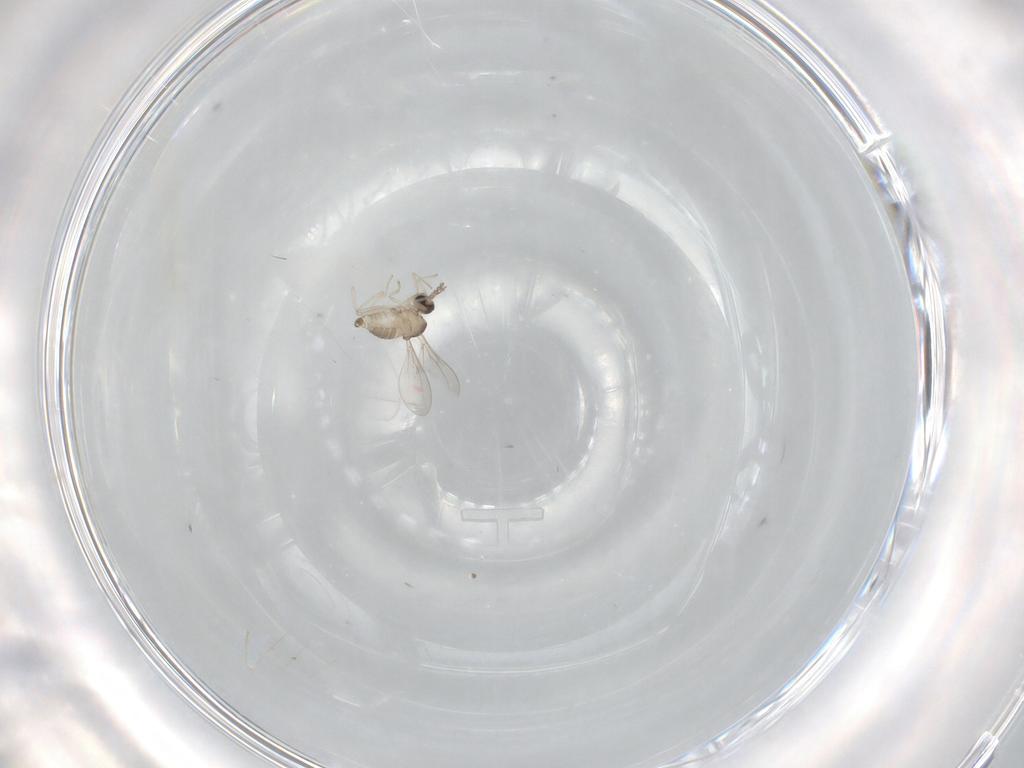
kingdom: Animalia
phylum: Arthropoda
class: Insecta
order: Diptera
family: Cecidomyiidae
